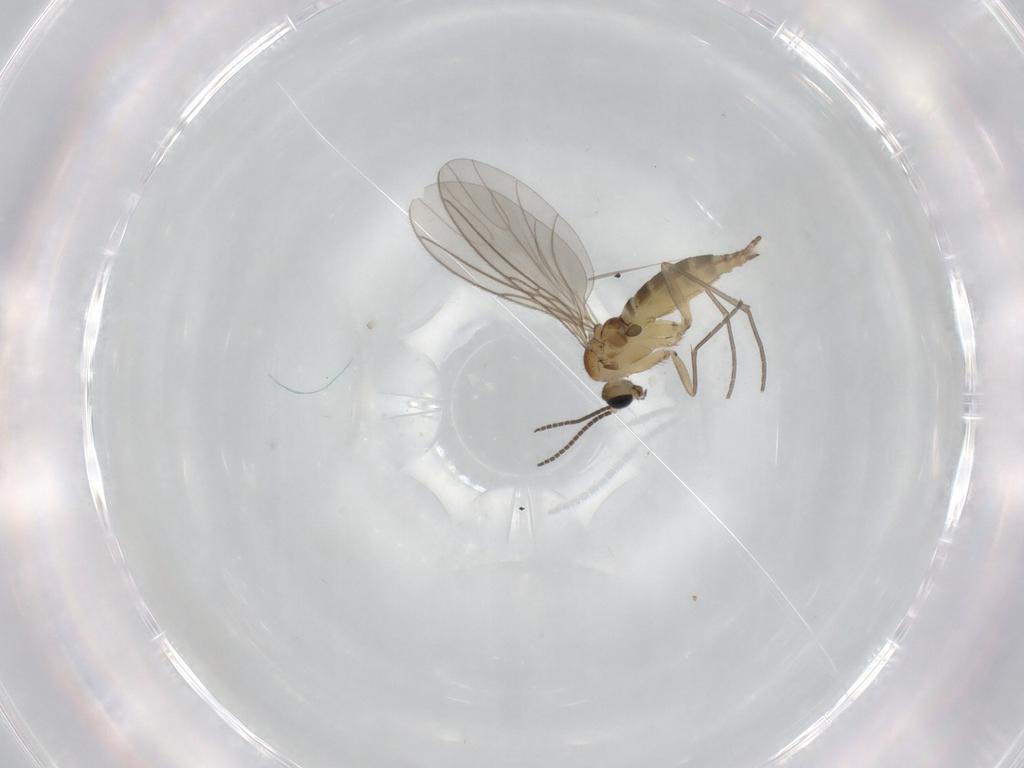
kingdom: Animalia
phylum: Arthropoda
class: Insecta
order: Diptera
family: Sciaridae
